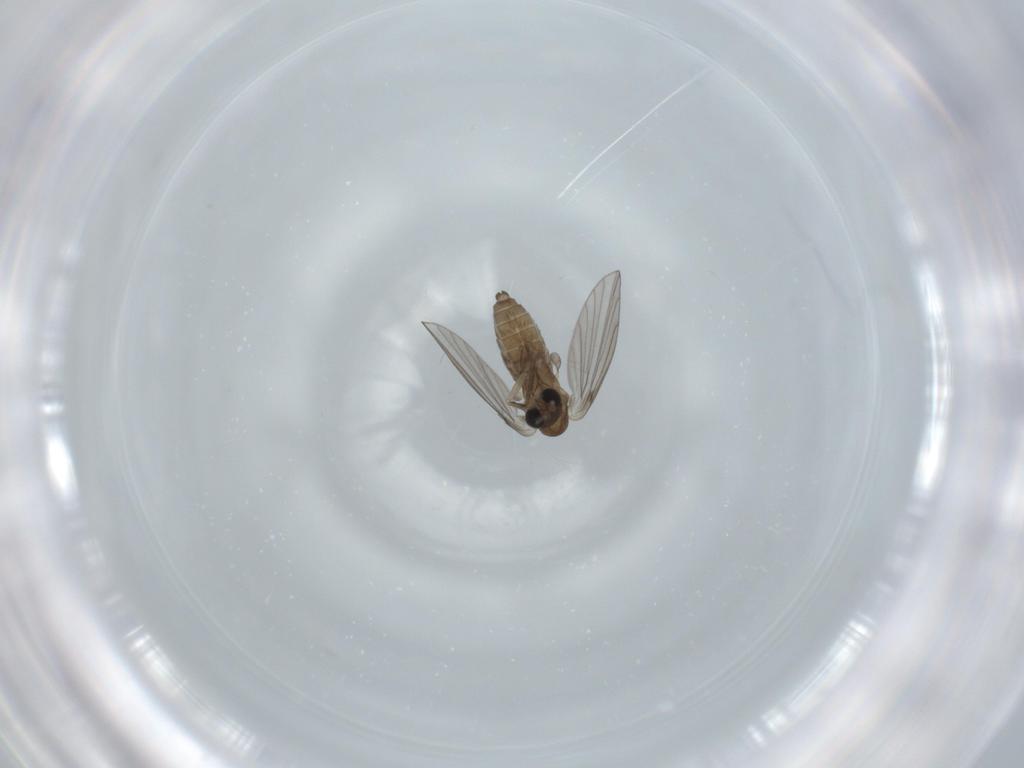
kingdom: Animalia
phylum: Arthropoda
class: Insecta
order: Diptera
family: Psychodidae
